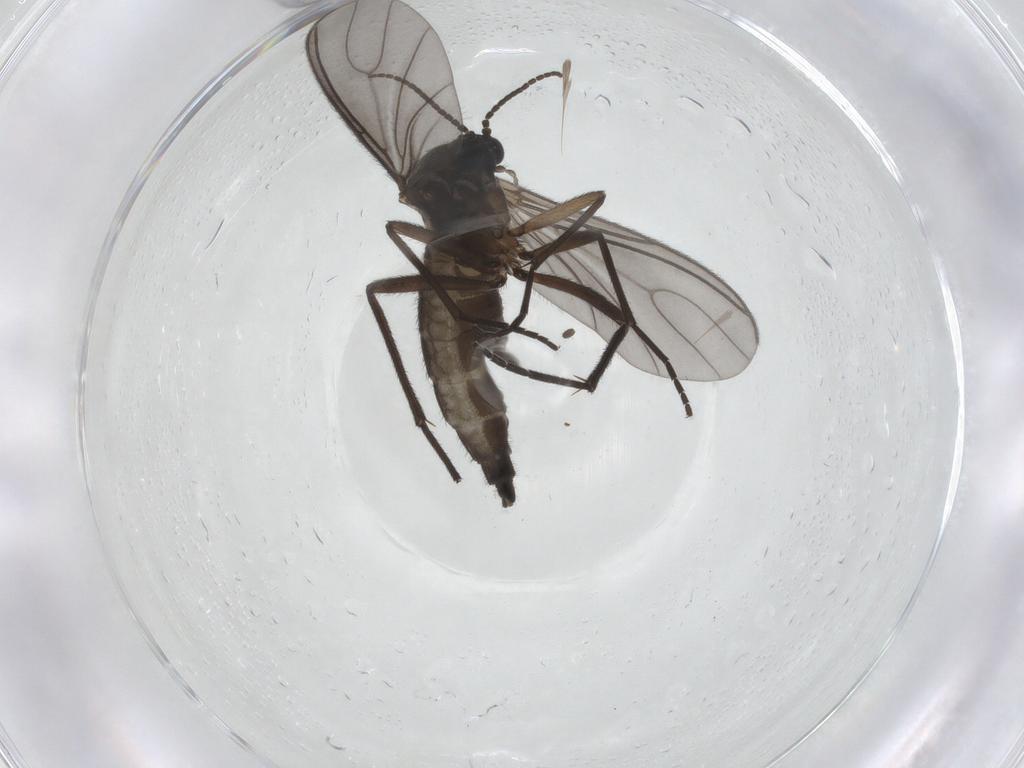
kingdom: Animalia
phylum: Arthropoda
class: Insecta
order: Diptera
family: Sciaridae
